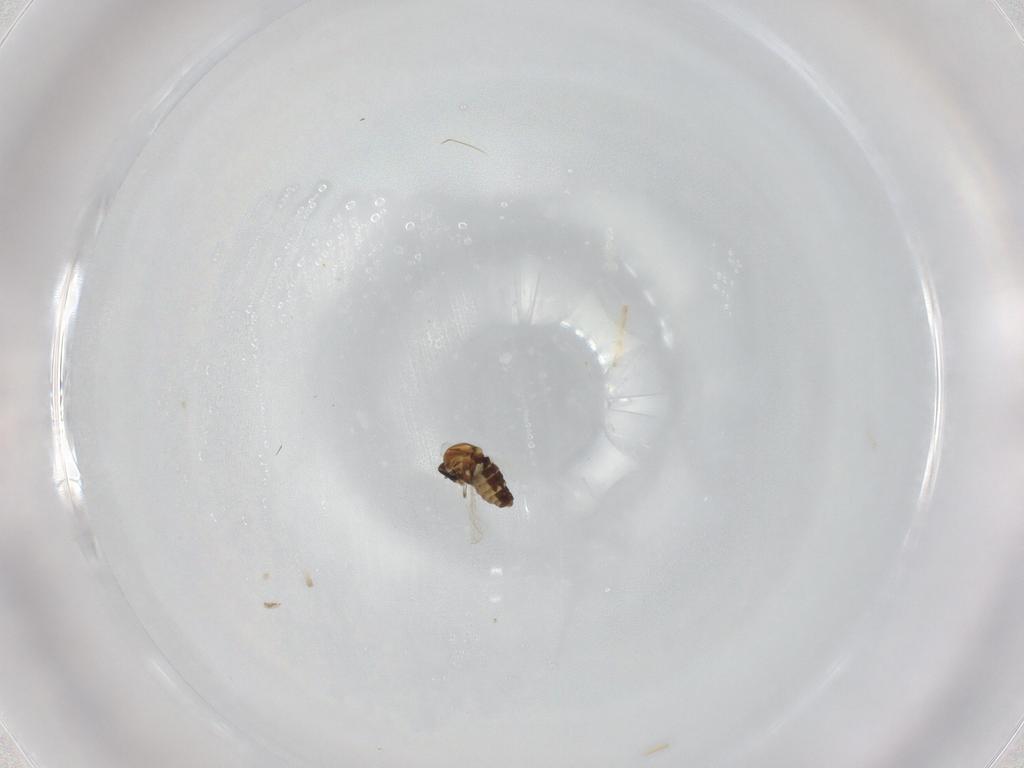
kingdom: Animalia
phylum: Arthropoda
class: Insecta
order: Diptera
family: Ceratopogonidae
